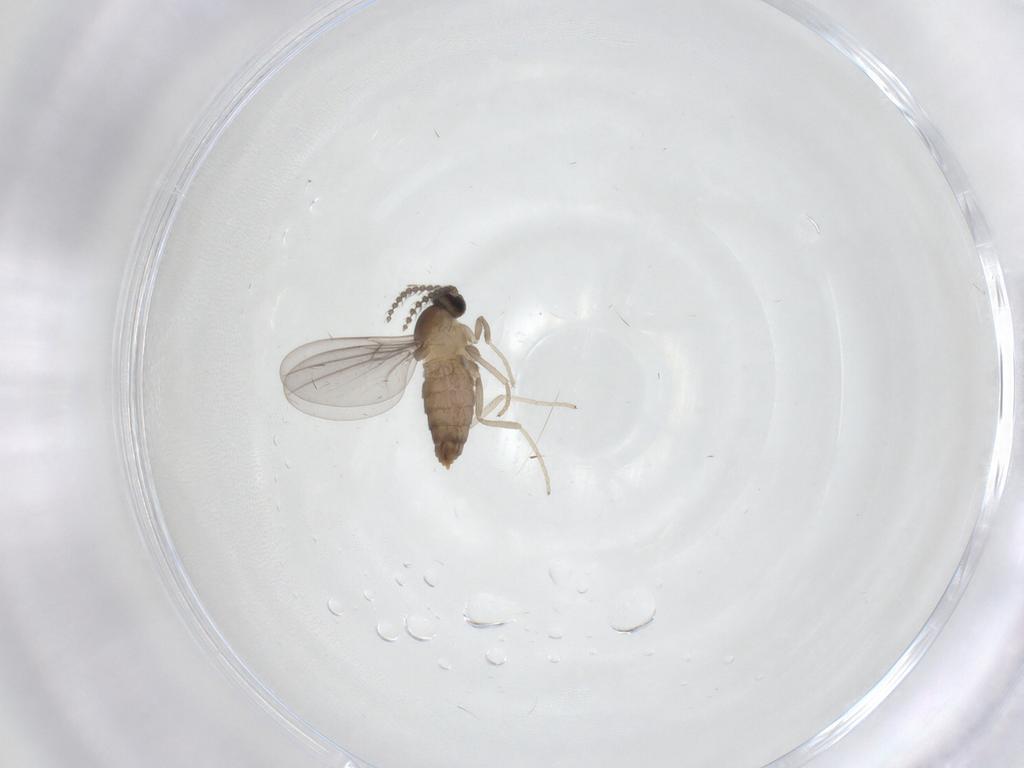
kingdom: Animalia
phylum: Arthropoda
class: Insecta
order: Diptera
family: Cecidomyiidae
